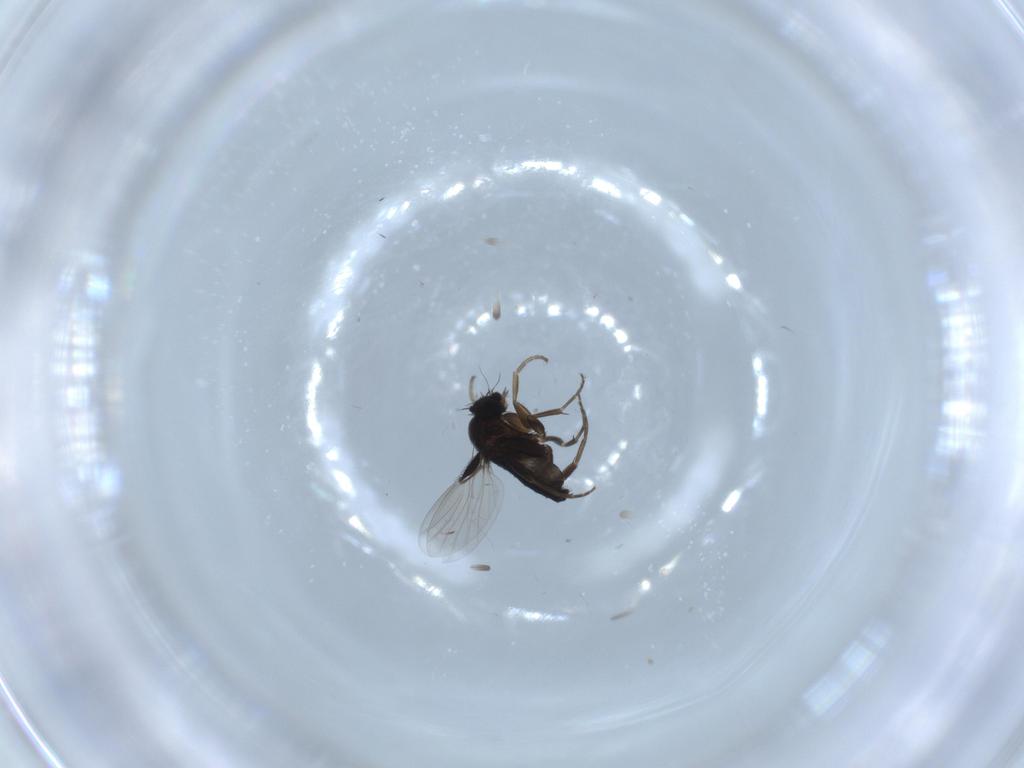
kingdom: Animalia
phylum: Arthropoda
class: Insecta
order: Diptera
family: Phoridae
